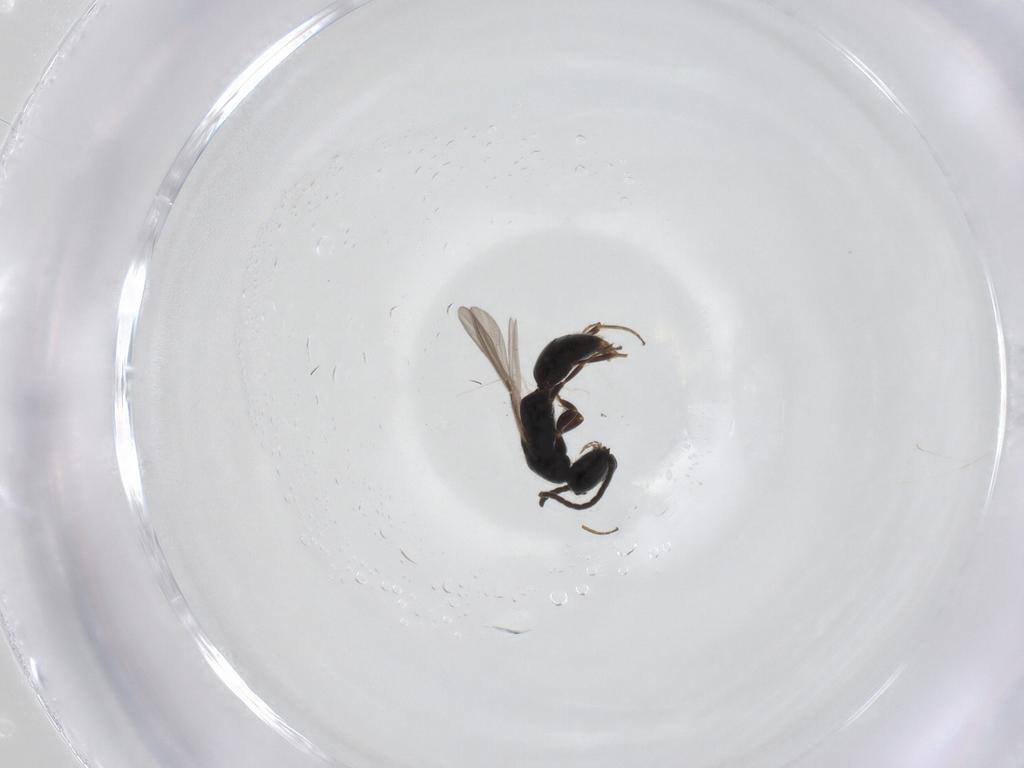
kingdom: Animalia
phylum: Arthropoda
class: Insecta
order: Hymenoptera
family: Bethylidae
